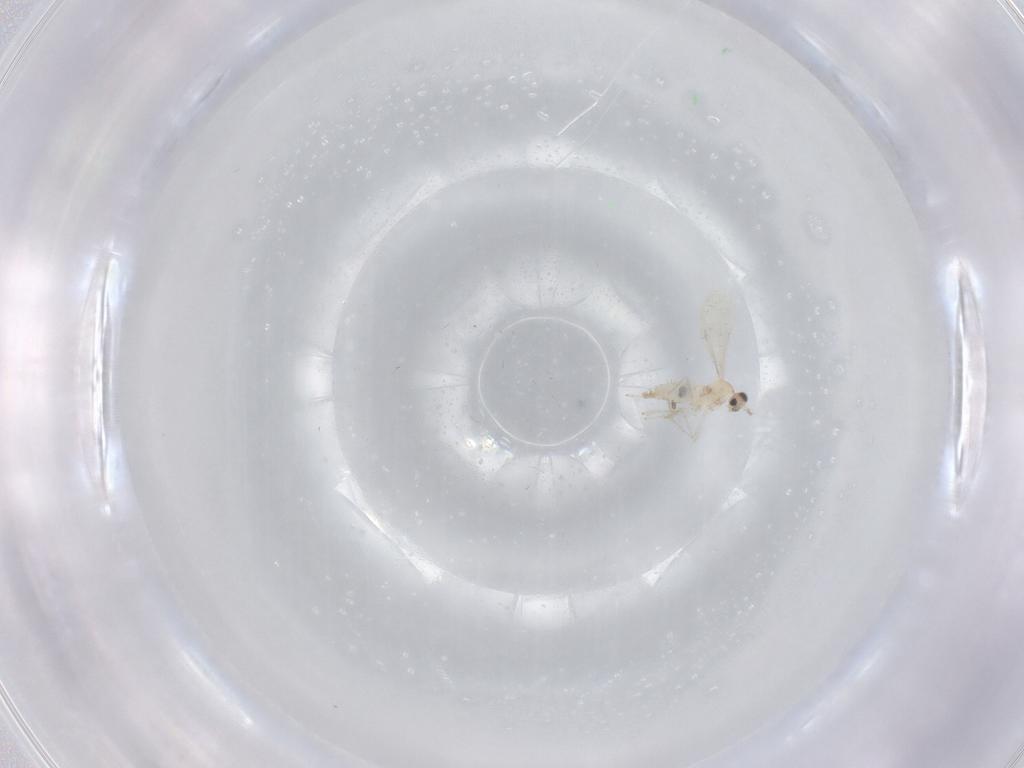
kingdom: Animalia
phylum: Arthropoda
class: Insecta
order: Diptera
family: Cecidomyiidae
